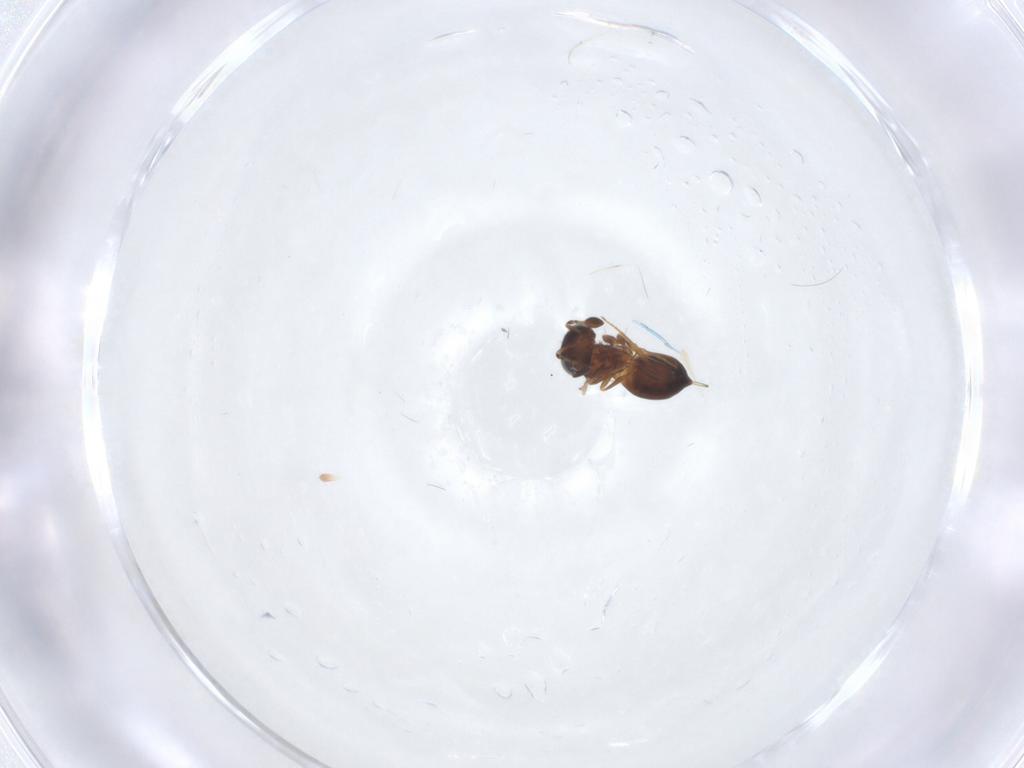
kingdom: Animalia
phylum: Arthropoda
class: Insecta
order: Hymenoptera
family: Scelionidae
